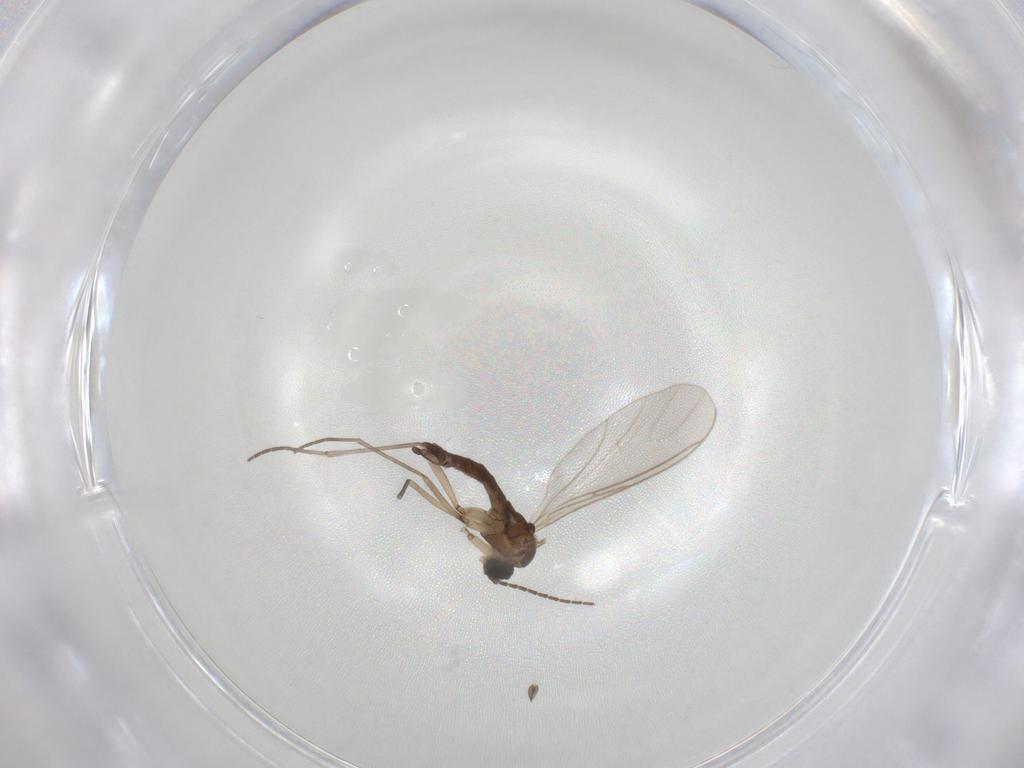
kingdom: Animalia
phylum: Arthropoda
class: Insecta
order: Diptera
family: Sciaridae
